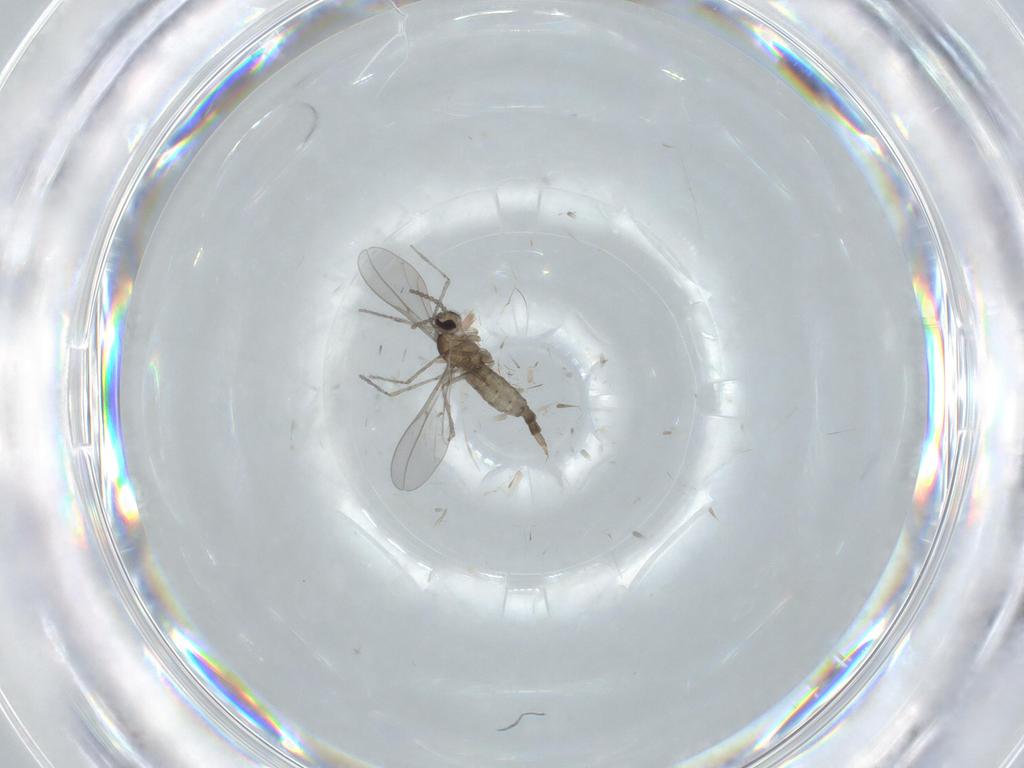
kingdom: Animalia
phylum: Arthropoda
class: Insecta
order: Diptera
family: Cecidomyiidae
